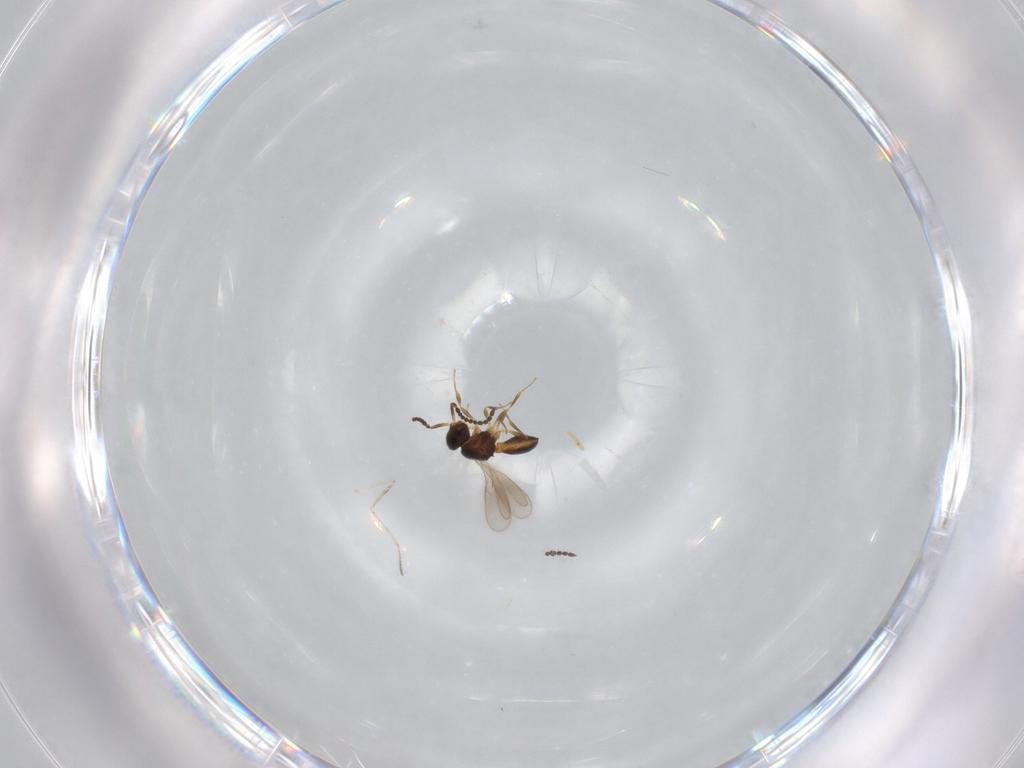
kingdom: Animalia
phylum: Arthropoda
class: Insecta
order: Hymenoptera
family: Scelionidae
